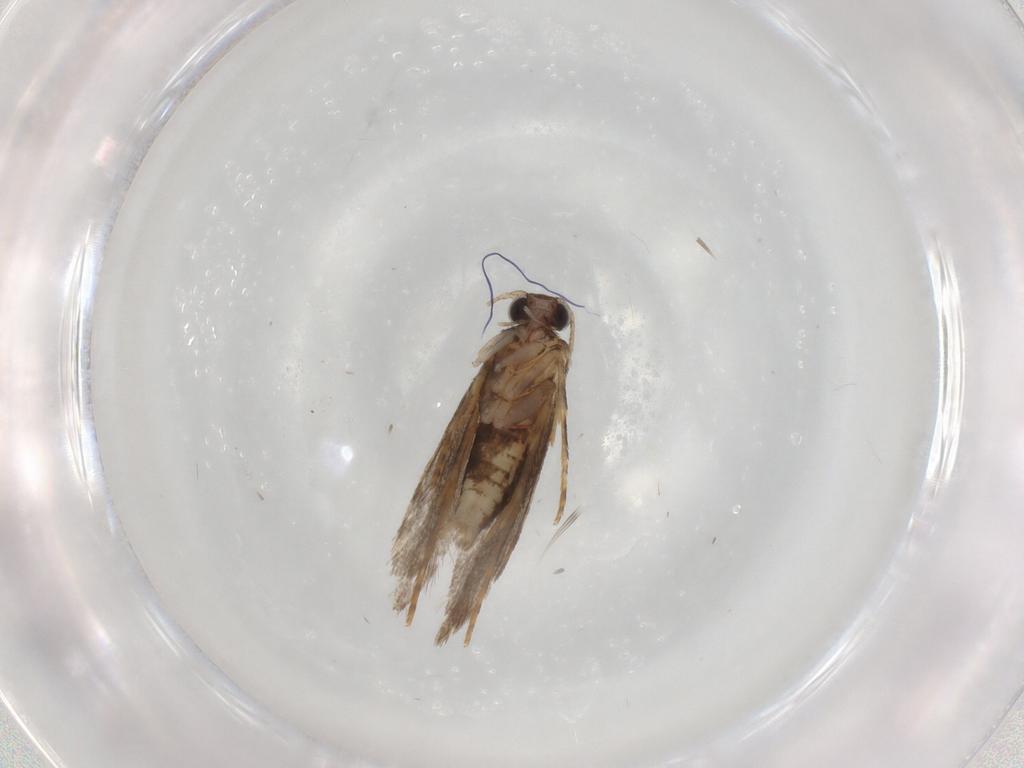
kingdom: Animalia
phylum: Arthropoda
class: Insecta
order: Lepidoptera
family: Tineidae
